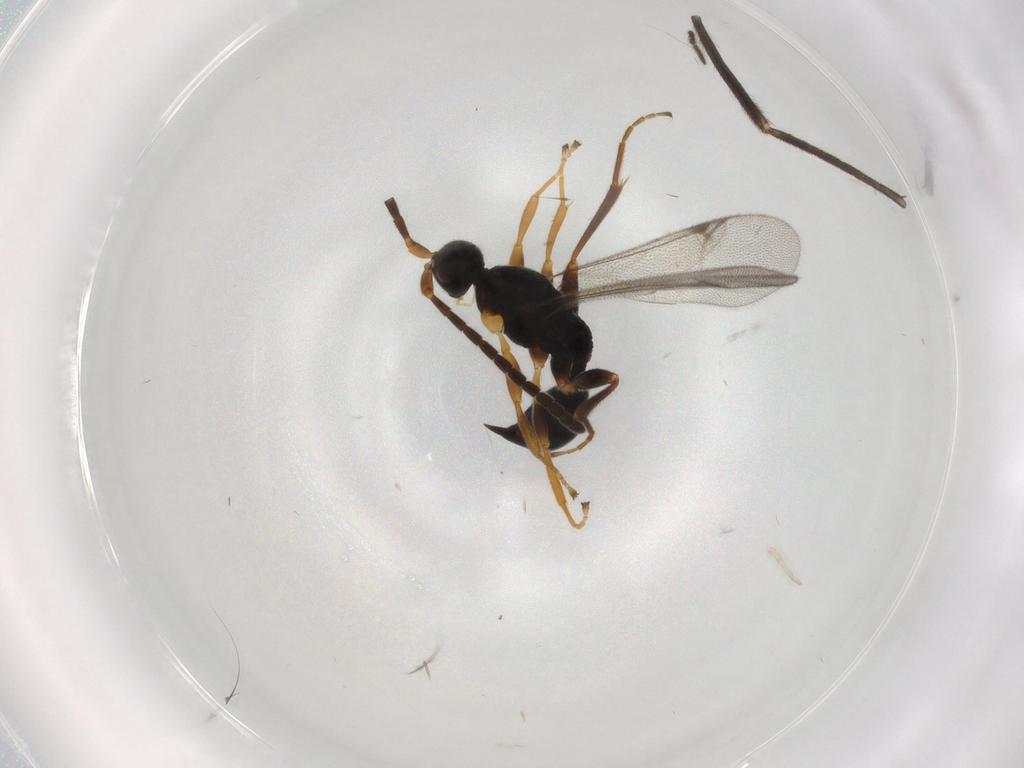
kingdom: Animalia
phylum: Arthropoda
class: Insecta
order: Hymenoptera
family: Proctotrupidae
